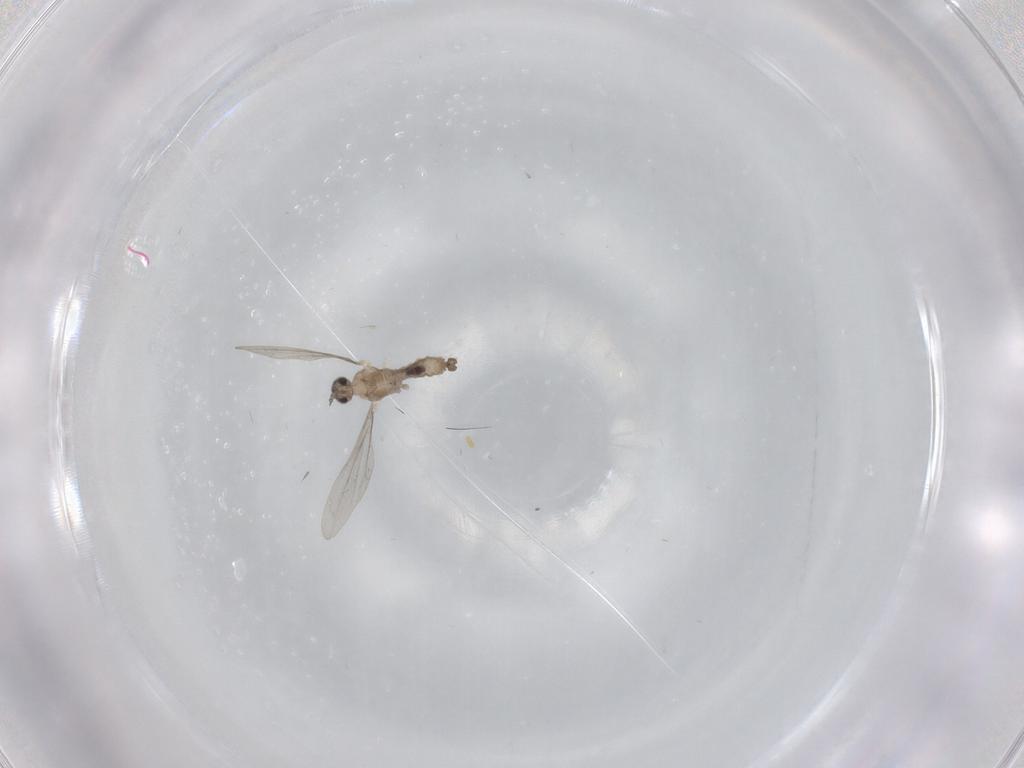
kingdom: Animalia
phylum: Arthropoda
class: Insecta
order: Diptera
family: Cecidomyiidae
